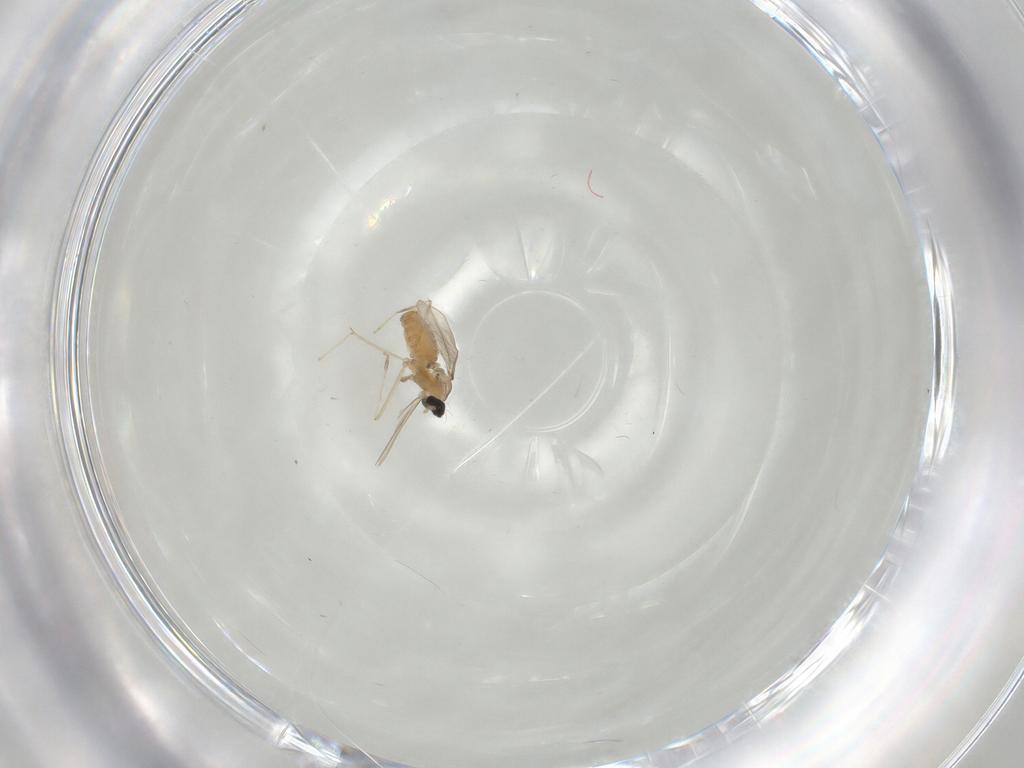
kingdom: Animalia
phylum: Arthropoda
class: Insecta
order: Diptera
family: Cecidomyiidae
